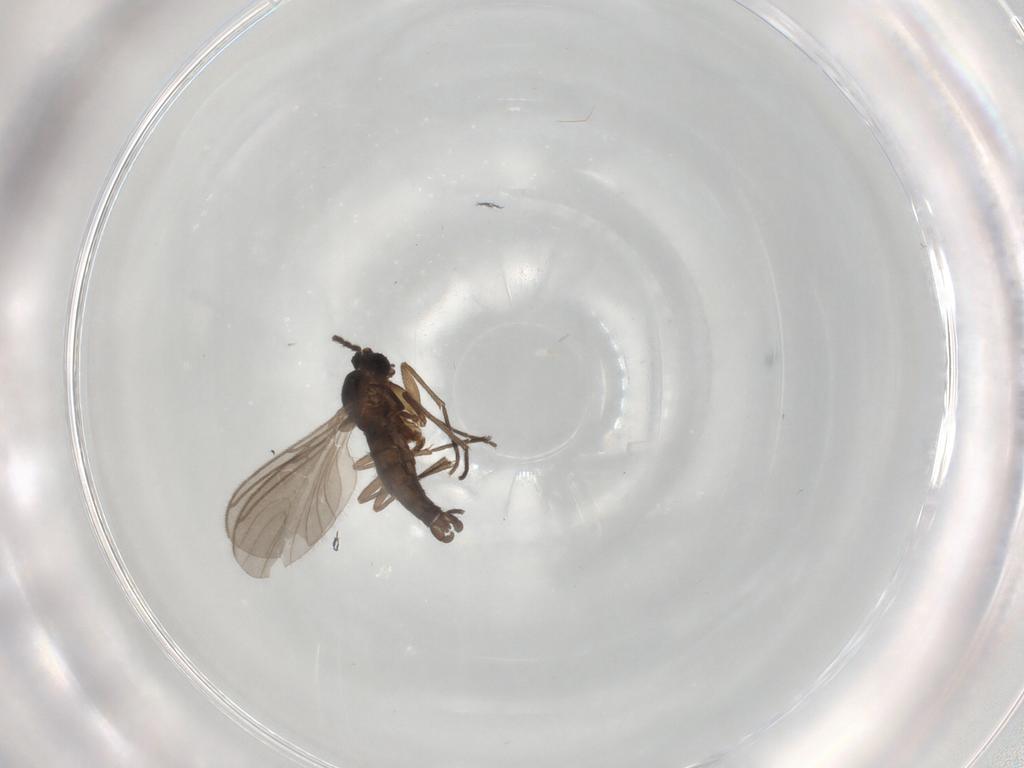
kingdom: Animalia
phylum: Arthropoda
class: Insecta
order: Diptera
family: Sciaridae
